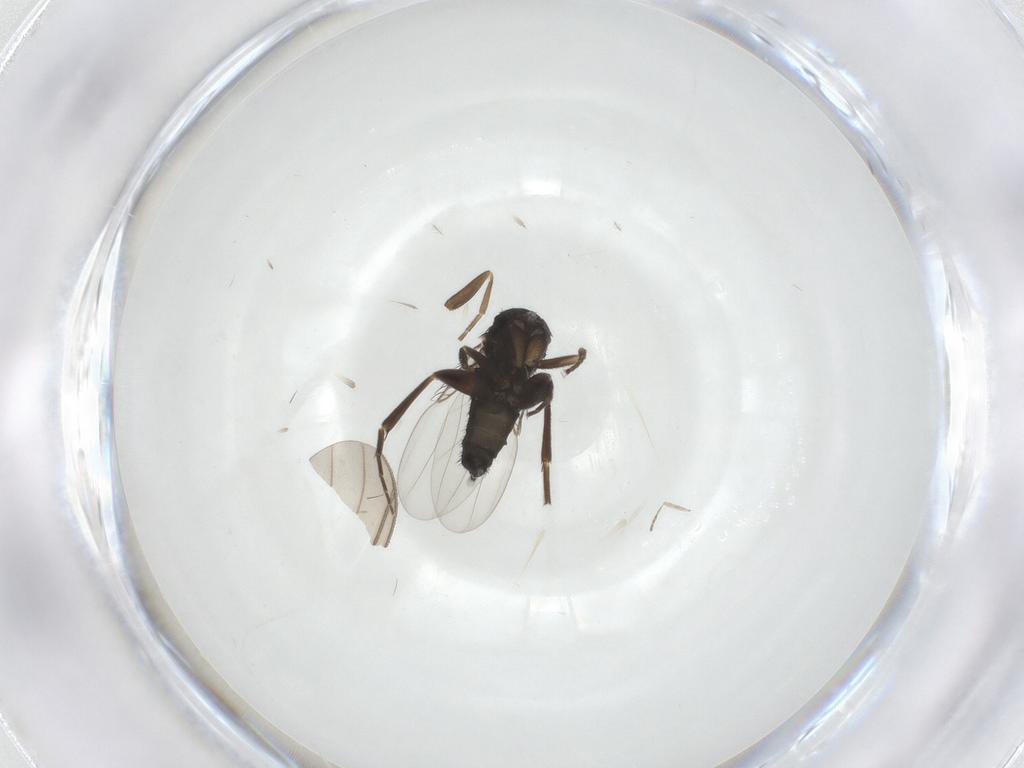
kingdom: Animalia
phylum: Arthropoda
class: Insecta
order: Diptera
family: Sciaridae
